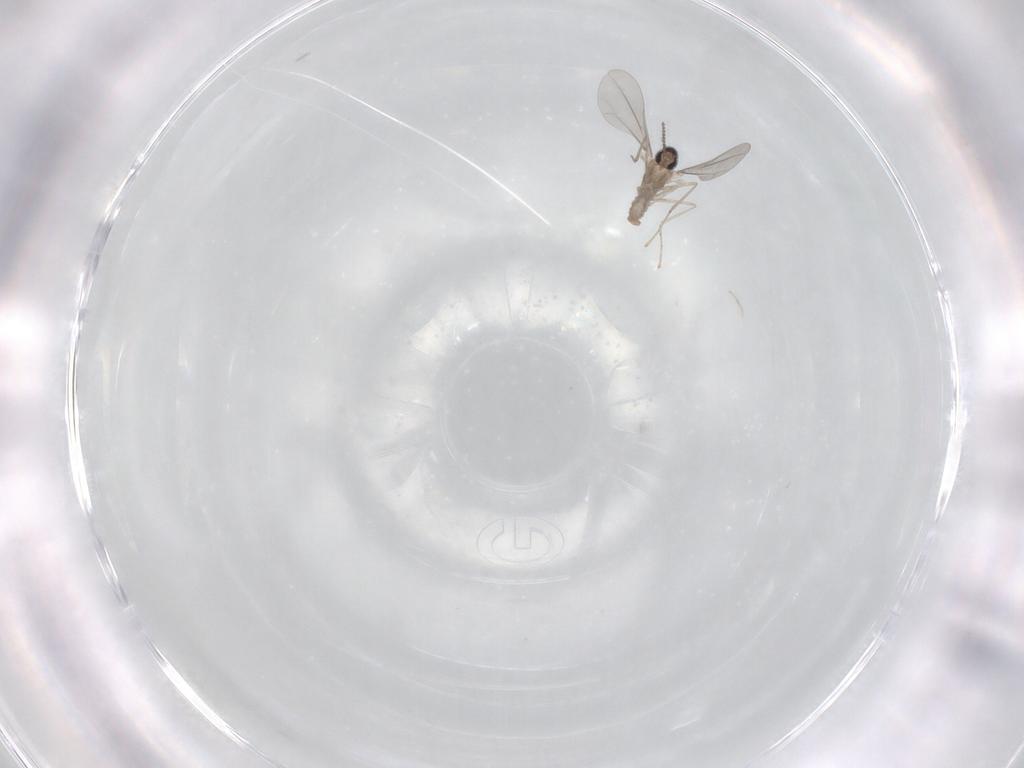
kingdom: Animalia
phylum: Arthropoda
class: Insecta
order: Diptera
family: Cecidomyiidae
